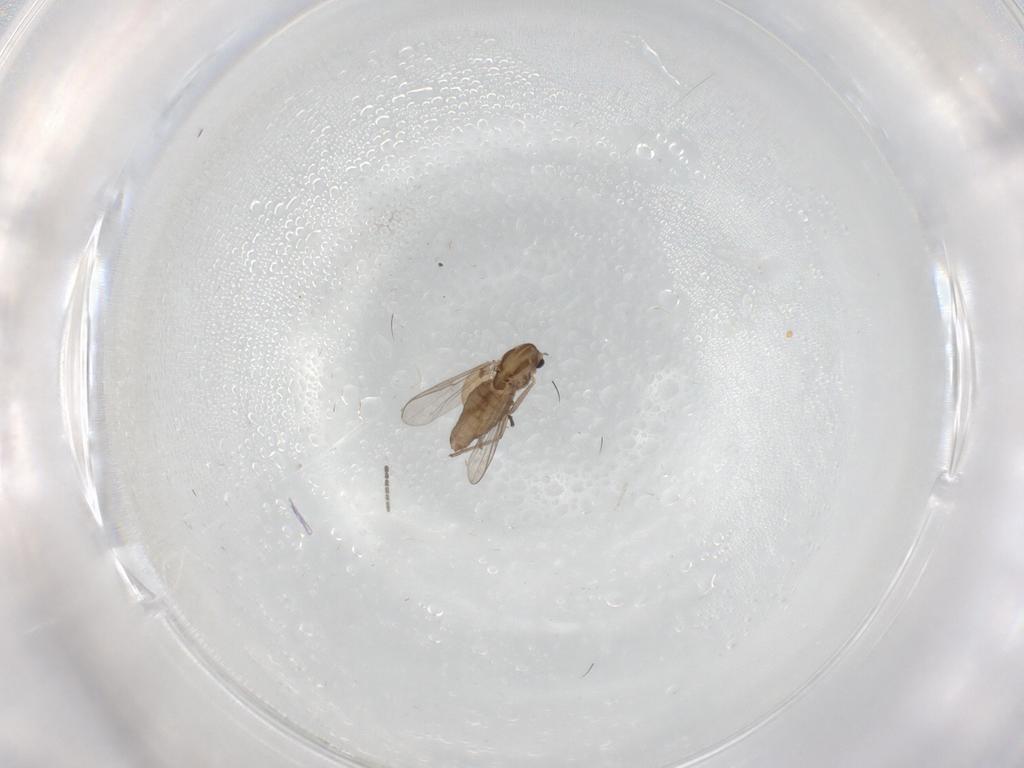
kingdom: Animalia
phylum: Arthropoda
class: Insecta
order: Diptera
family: Chironomidae
